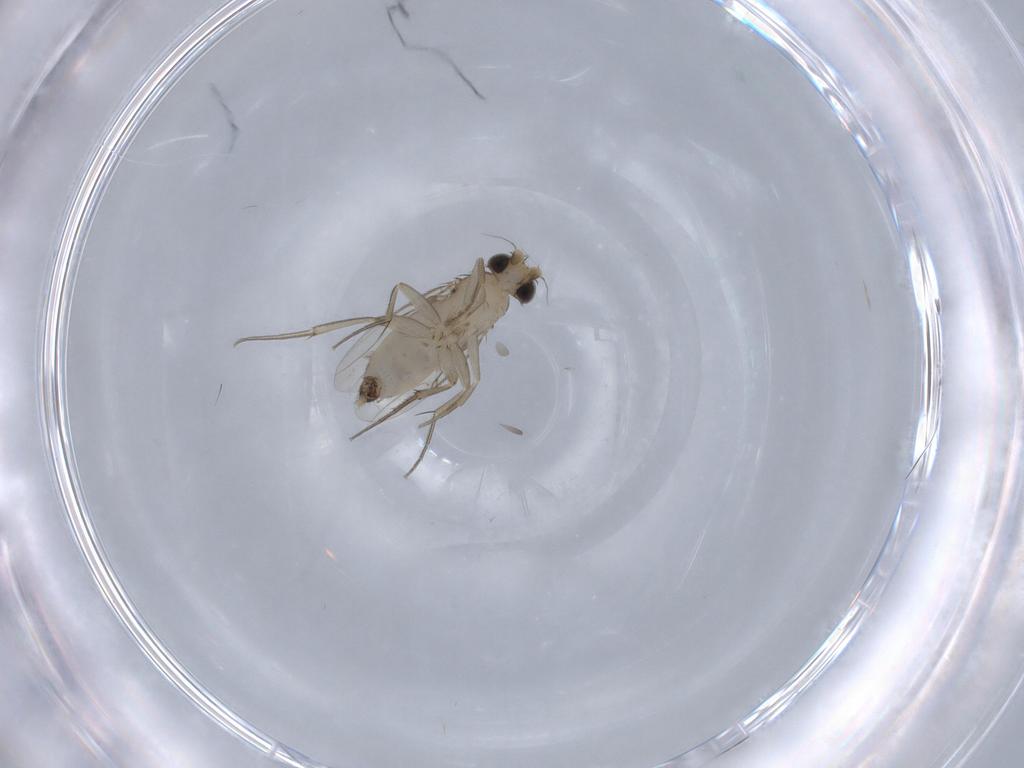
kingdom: Animalia
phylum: Arthropoda
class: Insecta
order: Diptera
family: Phoridae
